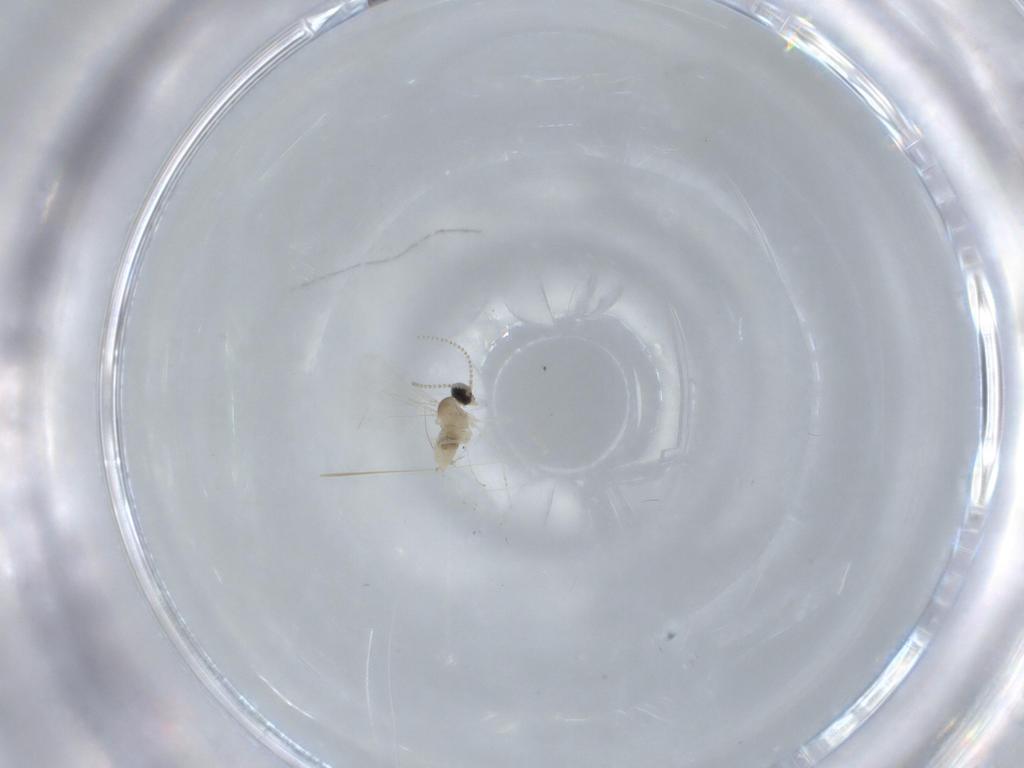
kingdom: Animalia
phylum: Arthropoda
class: Insecta
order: Diptera
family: Cecidomyiidae
